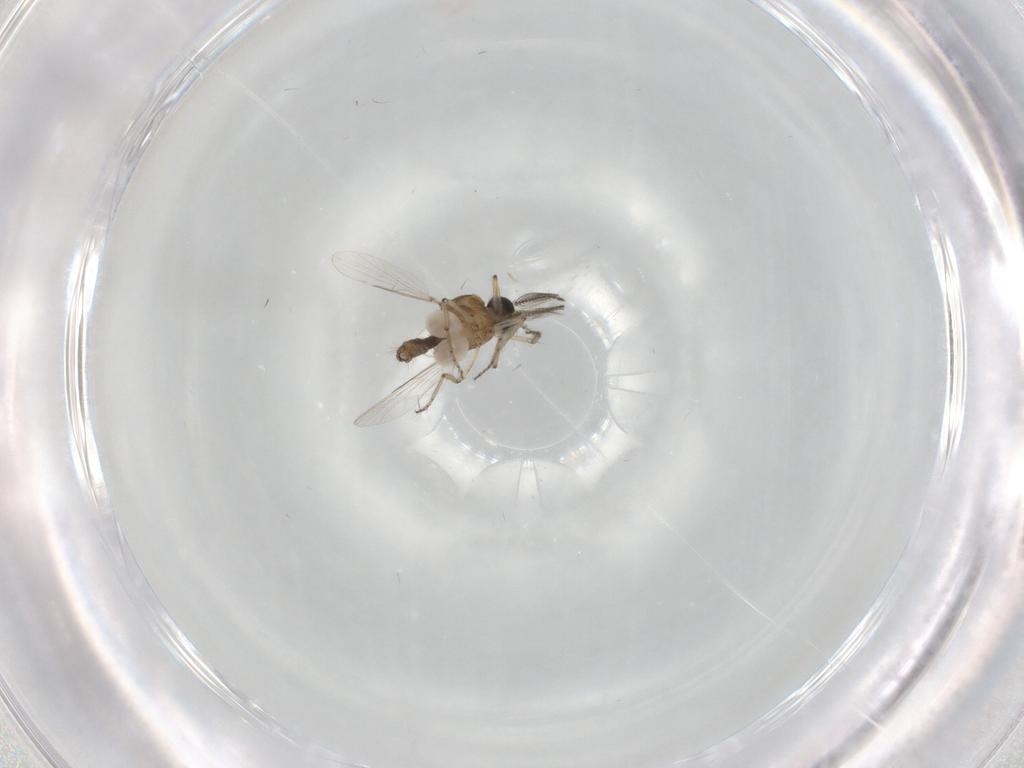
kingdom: Animalia
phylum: Arthropoda
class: Insecta
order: Diptera
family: Ceratopogonidae
